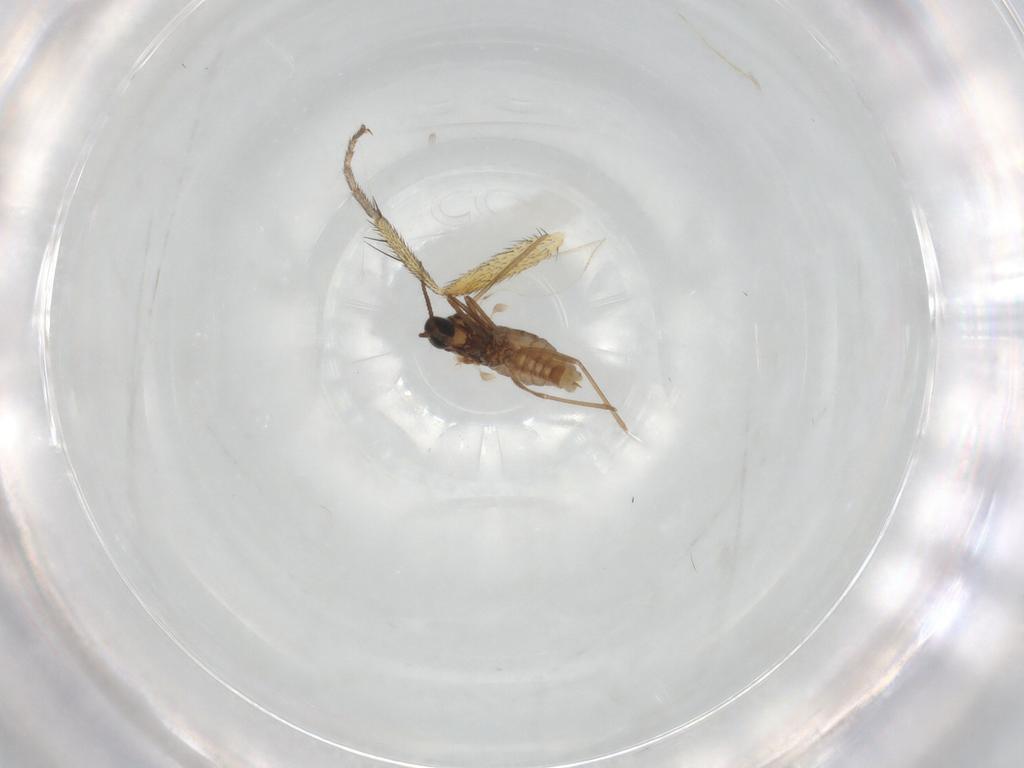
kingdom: Animalia
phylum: Arthropoda
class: Insecta
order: Diptera
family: Cecidomyiidae
